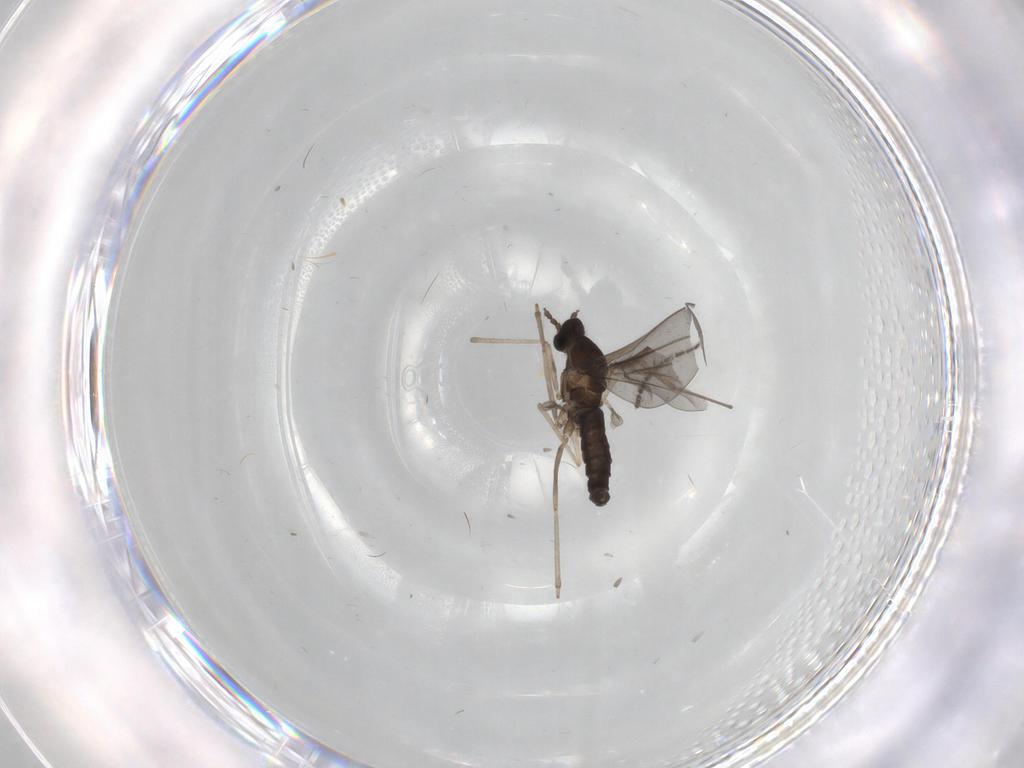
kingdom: Animalia
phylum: Arthropoda
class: Insecta
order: Diptera
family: Cecidomyiidae
